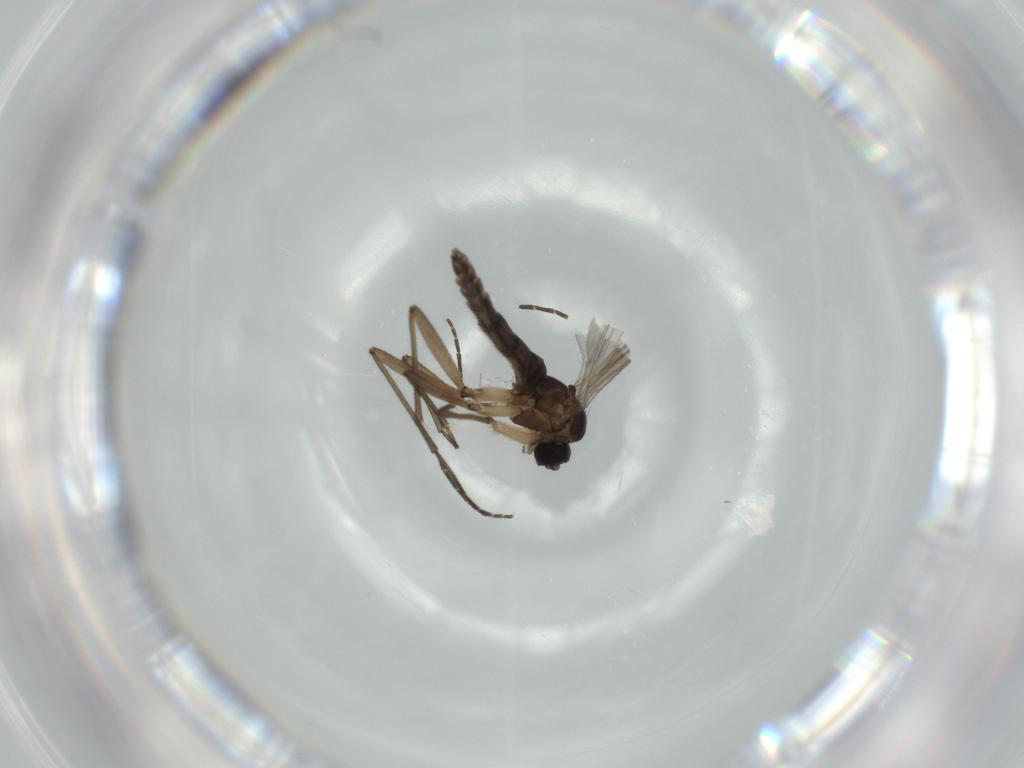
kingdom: Animalia
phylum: Arthropoda
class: Insecta
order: Diptera
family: Sciaridae
